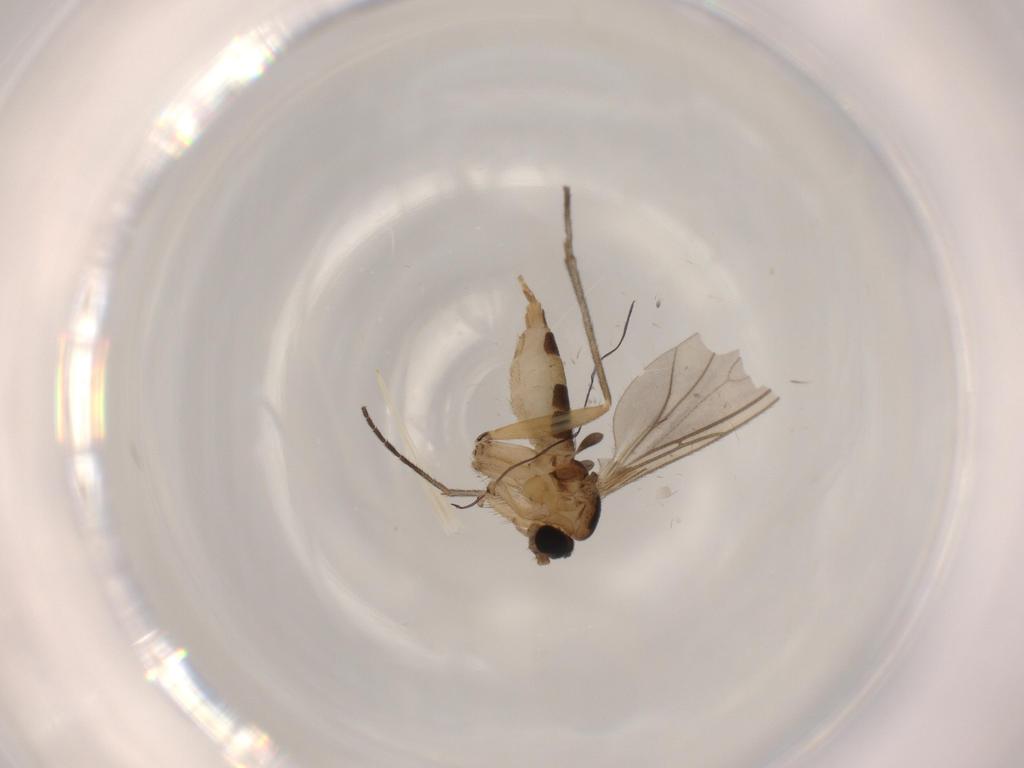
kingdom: Animalia
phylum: Arthropoda
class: Insecta
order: Diptera
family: Sciaridae
